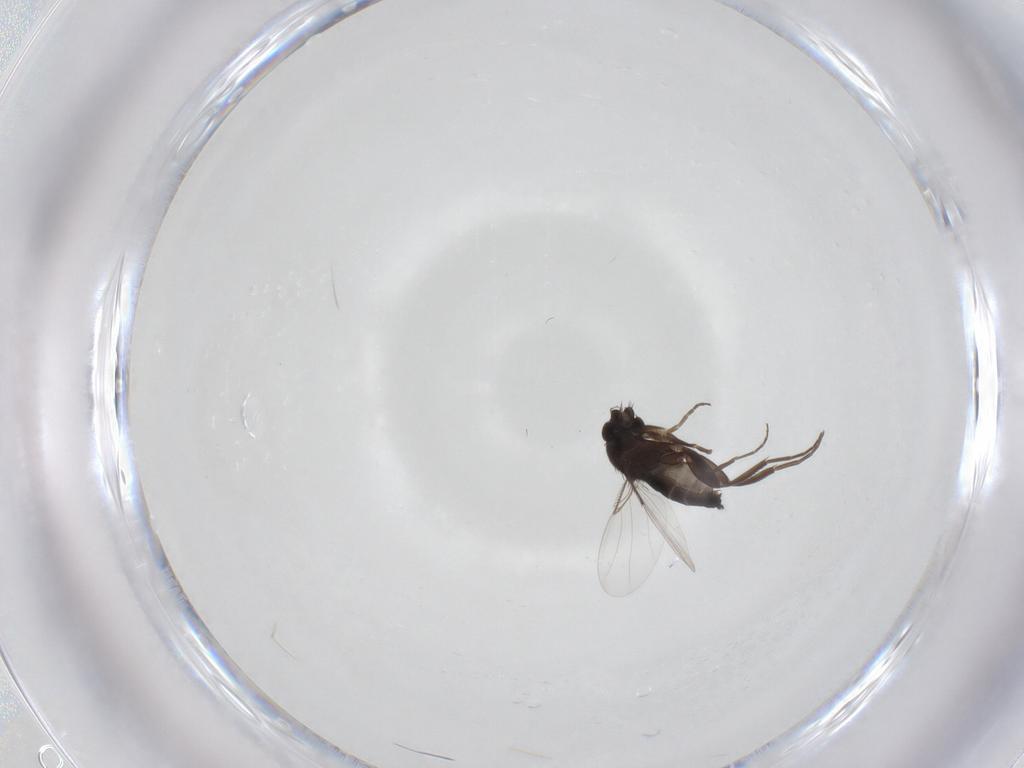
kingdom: Animalia
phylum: Arthropoda
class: Insecta
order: Diptera
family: Phoridae
